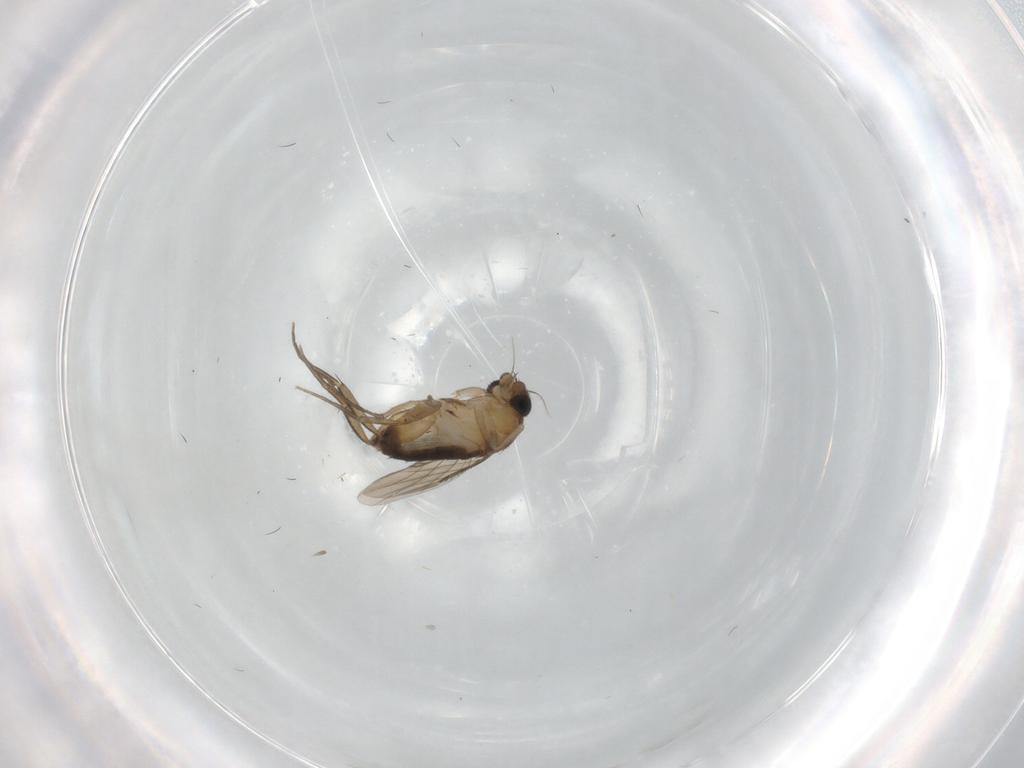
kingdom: Animalia
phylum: Arthropoda
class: Insecta
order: Diptera
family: Phoridae
